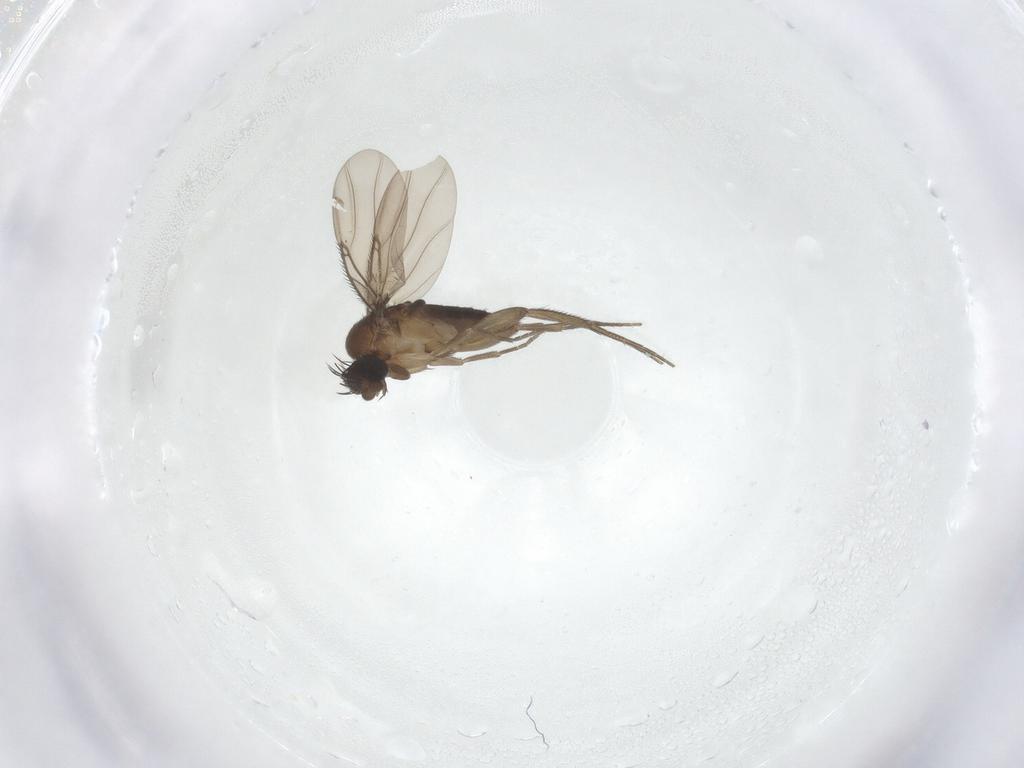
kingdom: Animalia
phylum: Arthropoda
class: Insecta
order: Diptera
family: Phoridae
